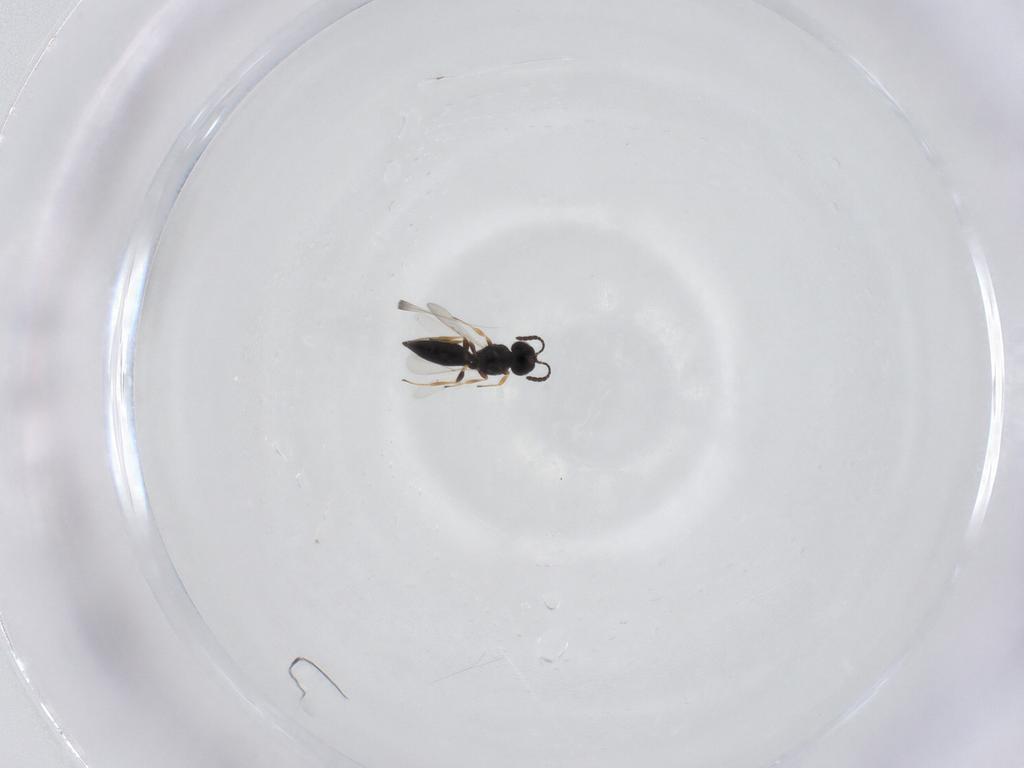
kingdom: Animalia
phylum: Arthropoda
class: Insecta
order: Hymenoptera
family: Scelionidae
